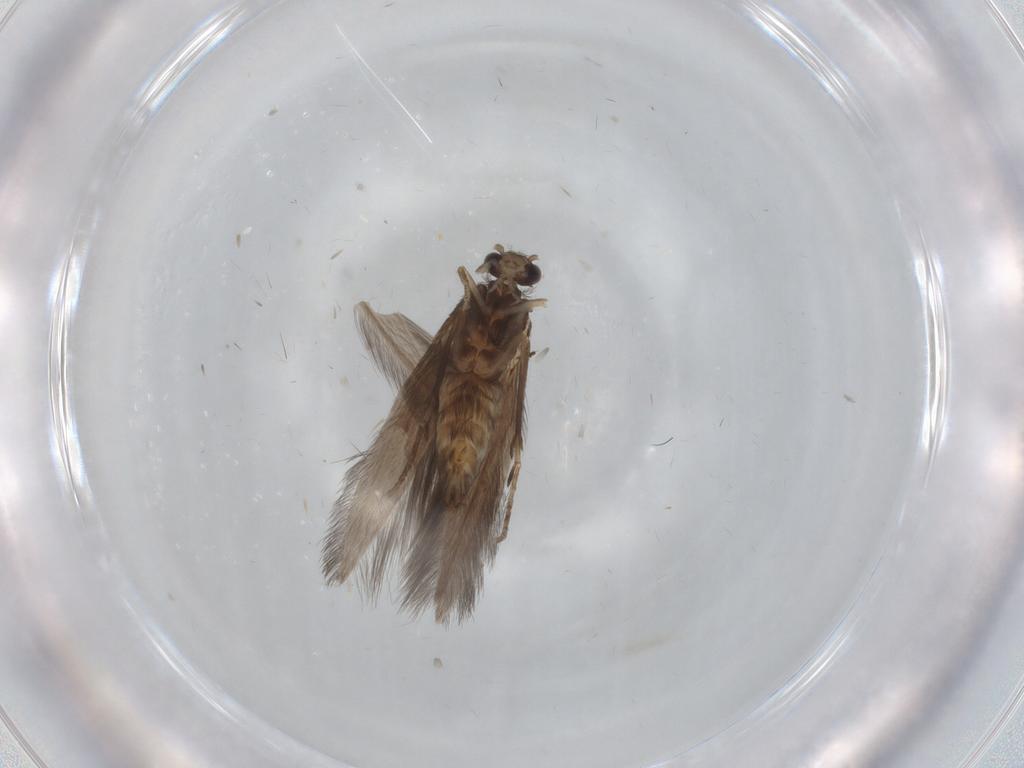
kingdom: Animalia
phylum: Arthropoda
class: Insecta
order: Trichoptera
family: Hydroptilidae
